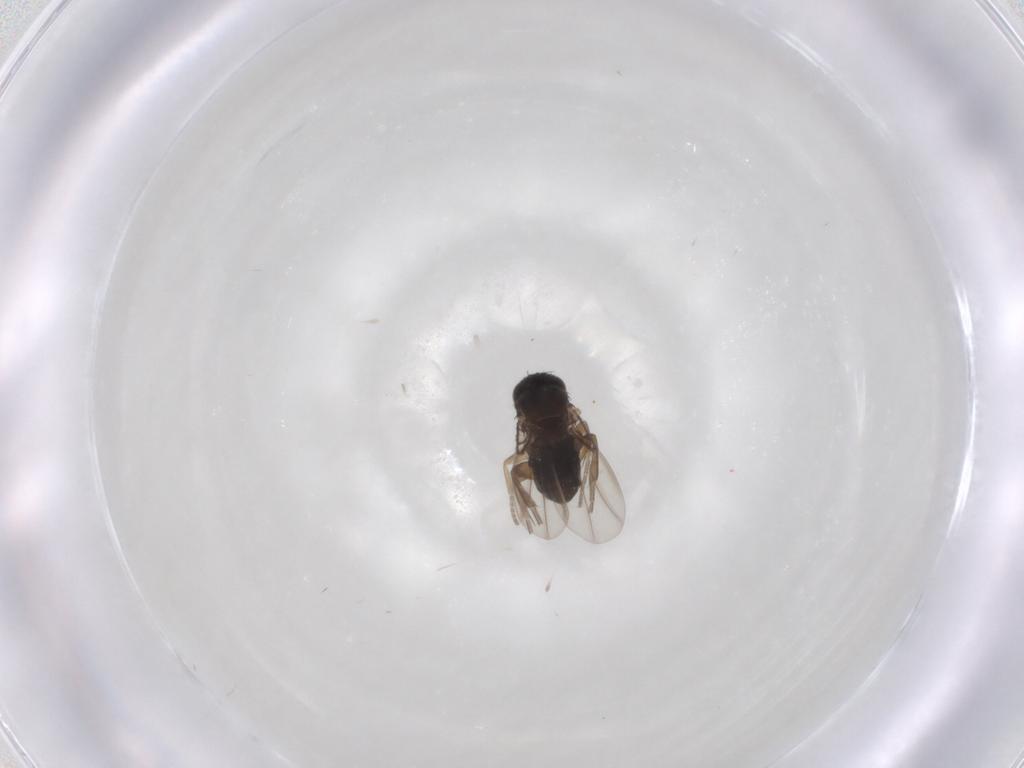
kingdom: Animalia
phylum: Arthropoda
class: Insecta
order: Diptera
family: Phoridae
